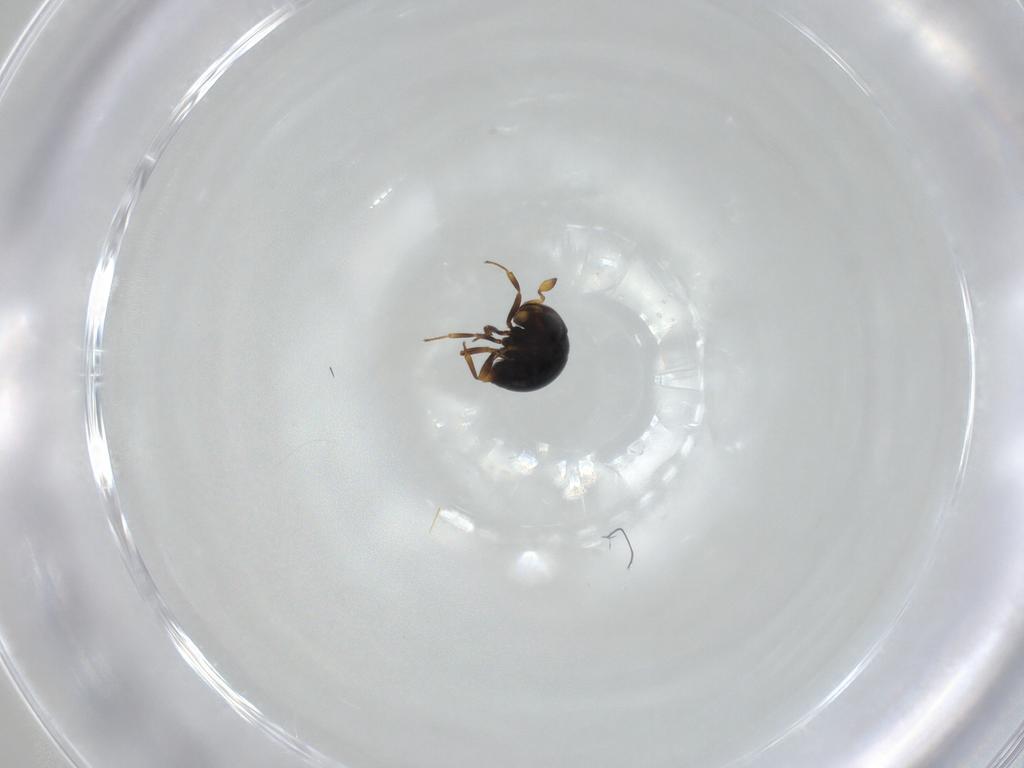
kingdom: Animalia
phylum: Arthropoda
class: Insecta
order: Hymenoptera
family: Scelionidae
